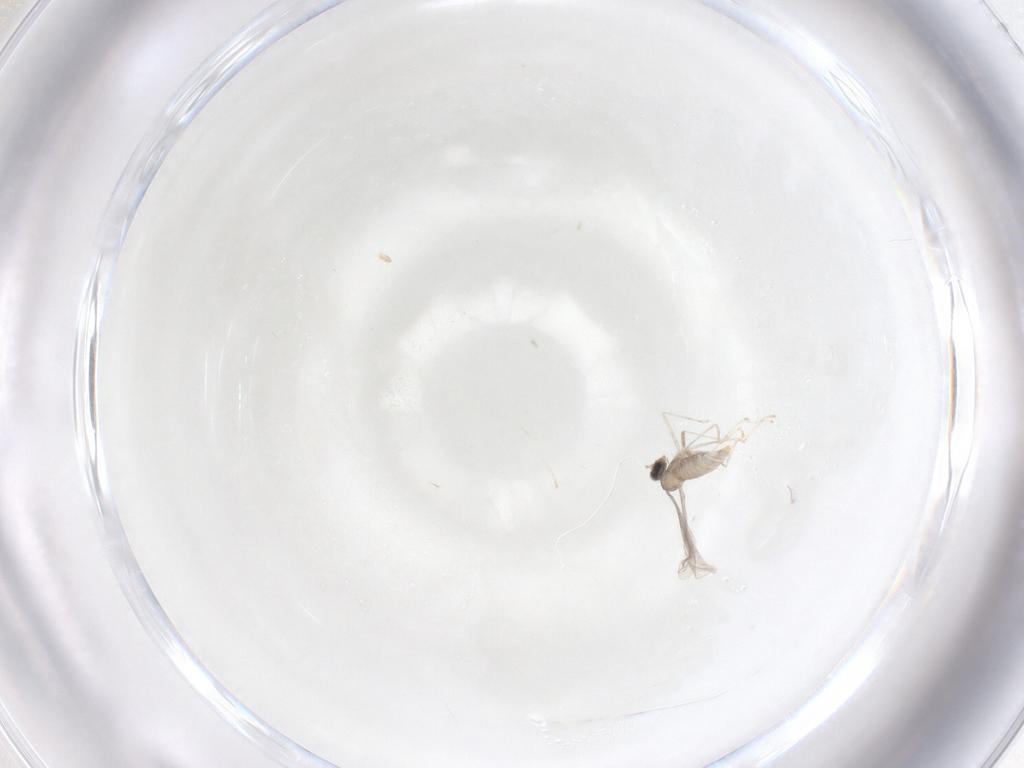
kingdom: Animalia
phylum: Arthropoda
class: Insecta
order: Diptera
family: Cecidomyiidae
